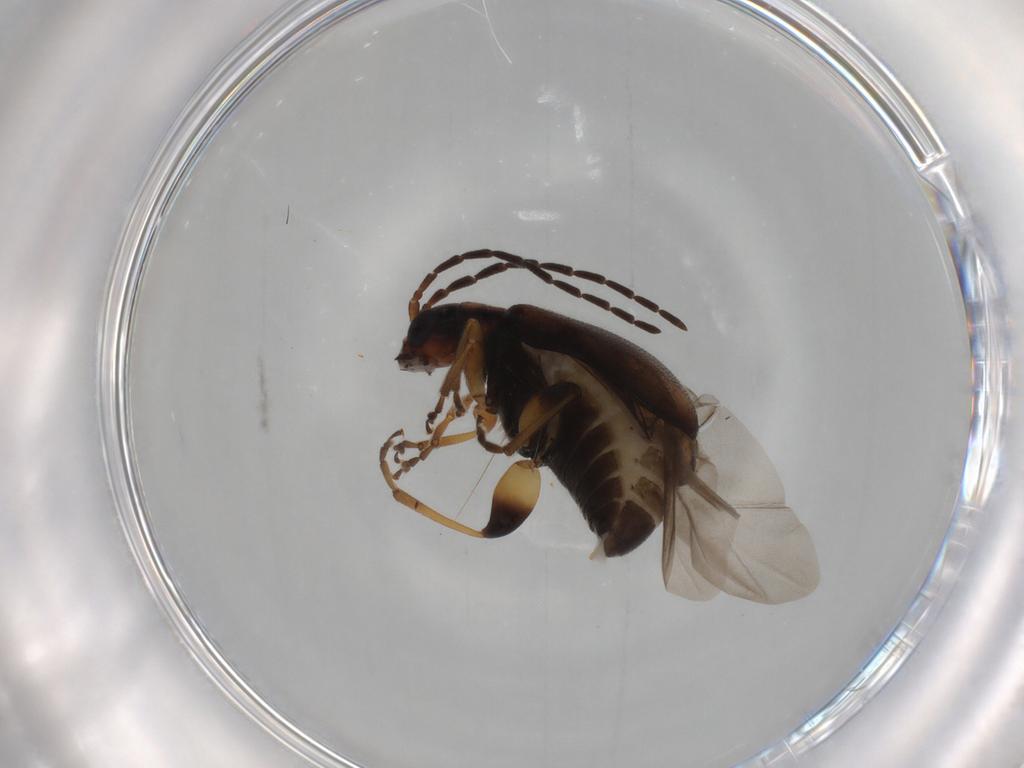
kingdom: Animalia
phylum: Arthropoda
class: Insecta
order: Coleoptera
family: Chrysomelidae
